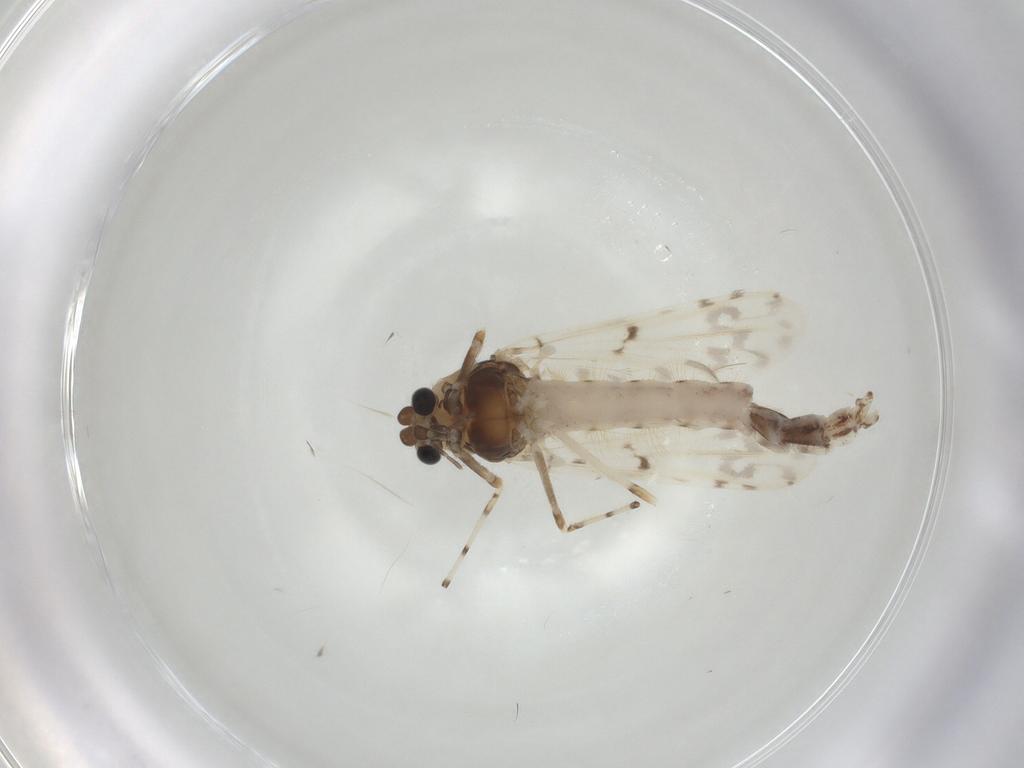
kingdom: Animalia
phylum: Arthropoda
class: Insecta
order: Diptera
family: Chironomidae
